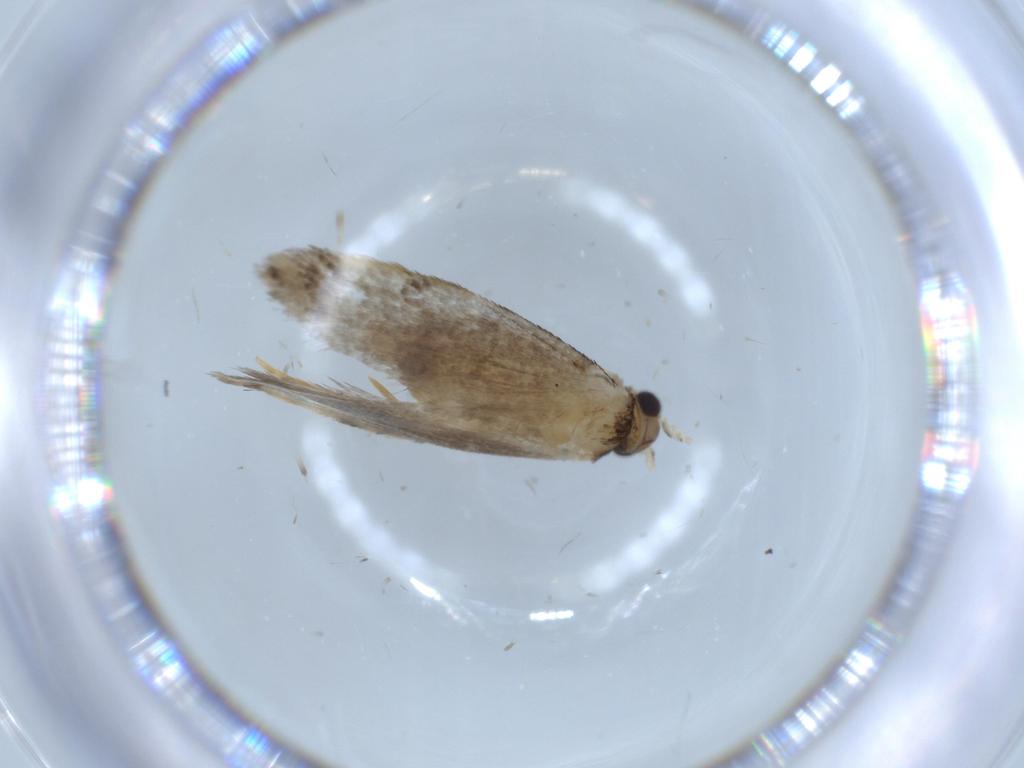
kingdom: Animalia
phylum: Arthropoda
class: Insecta
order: Lepidoptera
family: Tineidae
